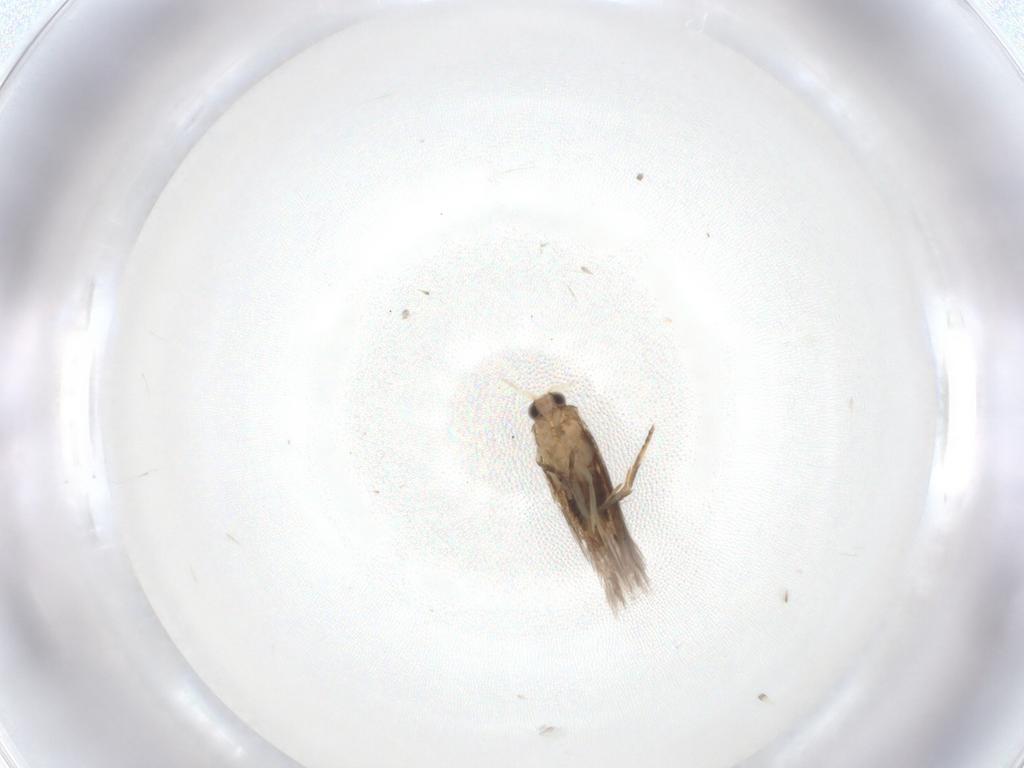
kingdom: Animalia
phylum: Arthropoda
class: Insecta
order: Lepidoptera
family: Nepticulidae
